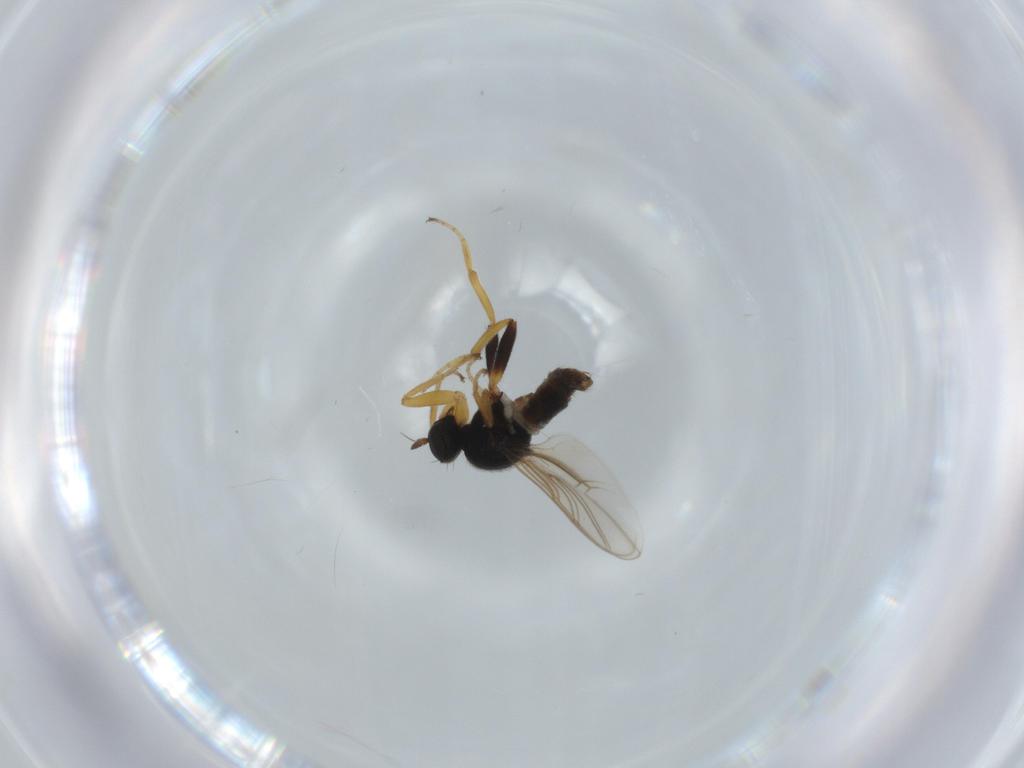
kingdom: Animalia
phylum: Arthropoda
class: Insecta
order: Diptera
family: Hybotidae
